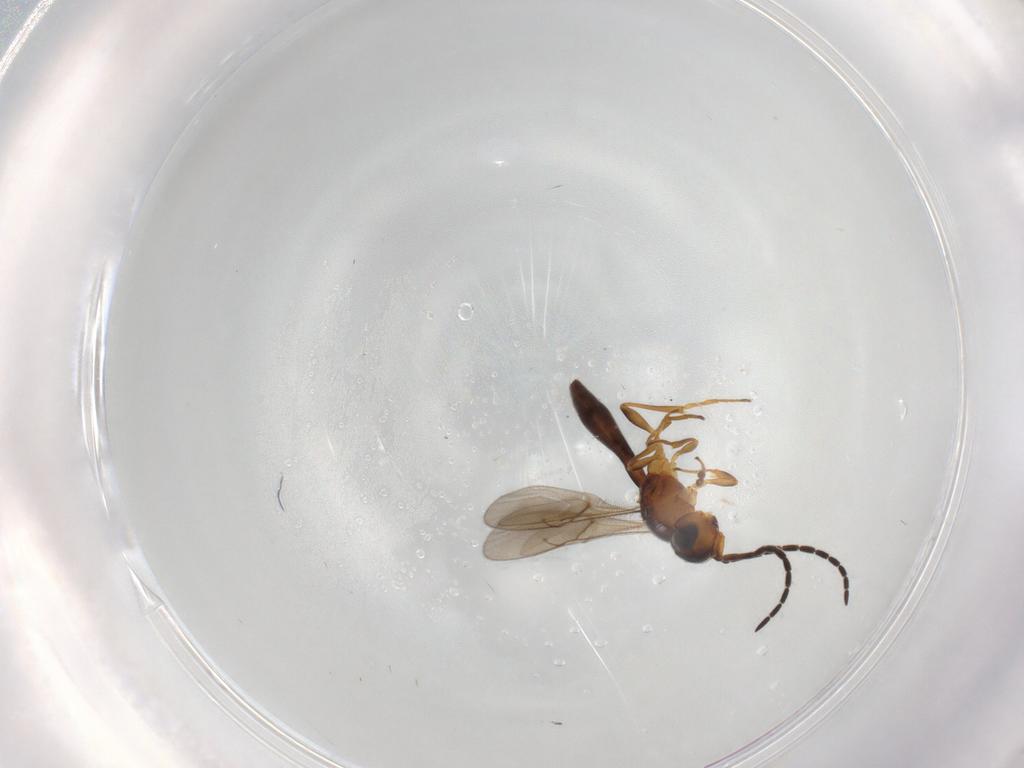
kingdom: Animalia
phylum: Arthropoda
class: Insecta
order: Hymenoptera
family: Scelionidae
